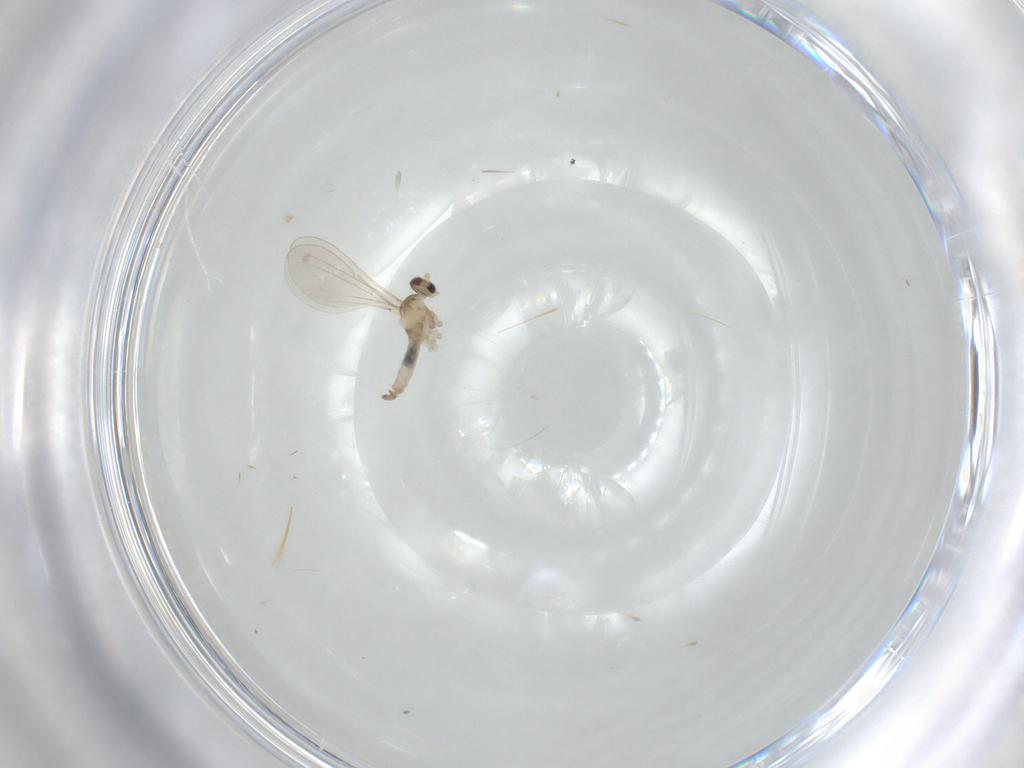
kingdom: Animalia
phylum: Arthropoda
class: Insecta
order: Diptera
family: Cecidomyiidae
